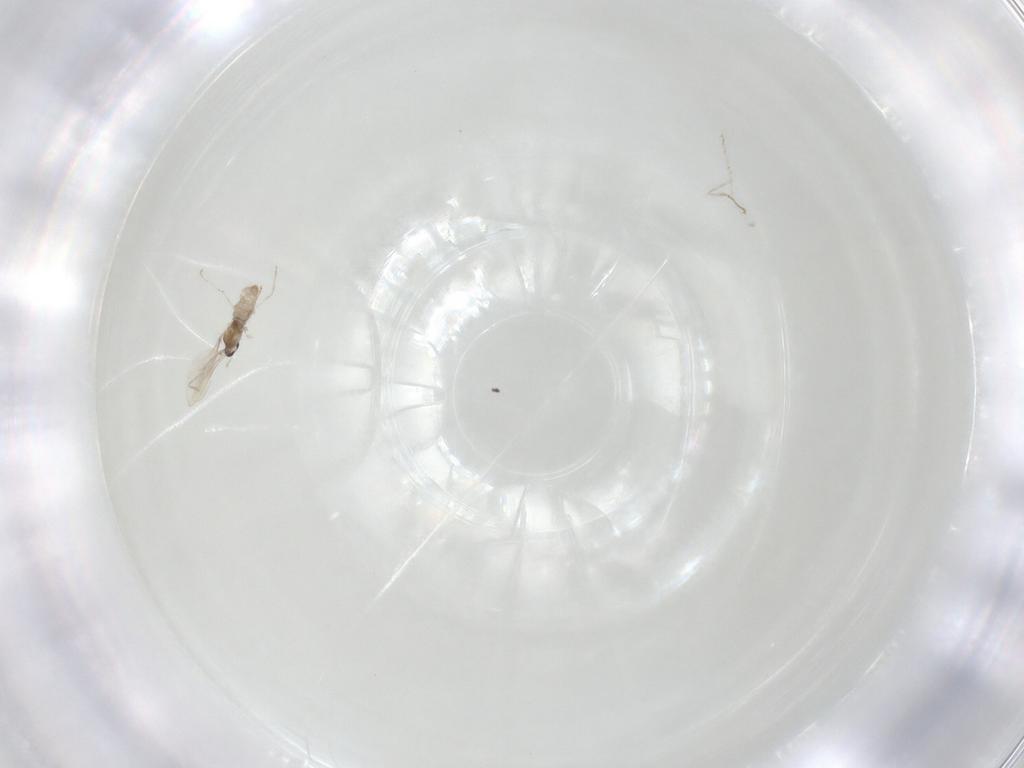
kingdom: Animalia
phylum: Arthropoda
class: Insecta
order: Diptera
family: Cecidomyiidae
